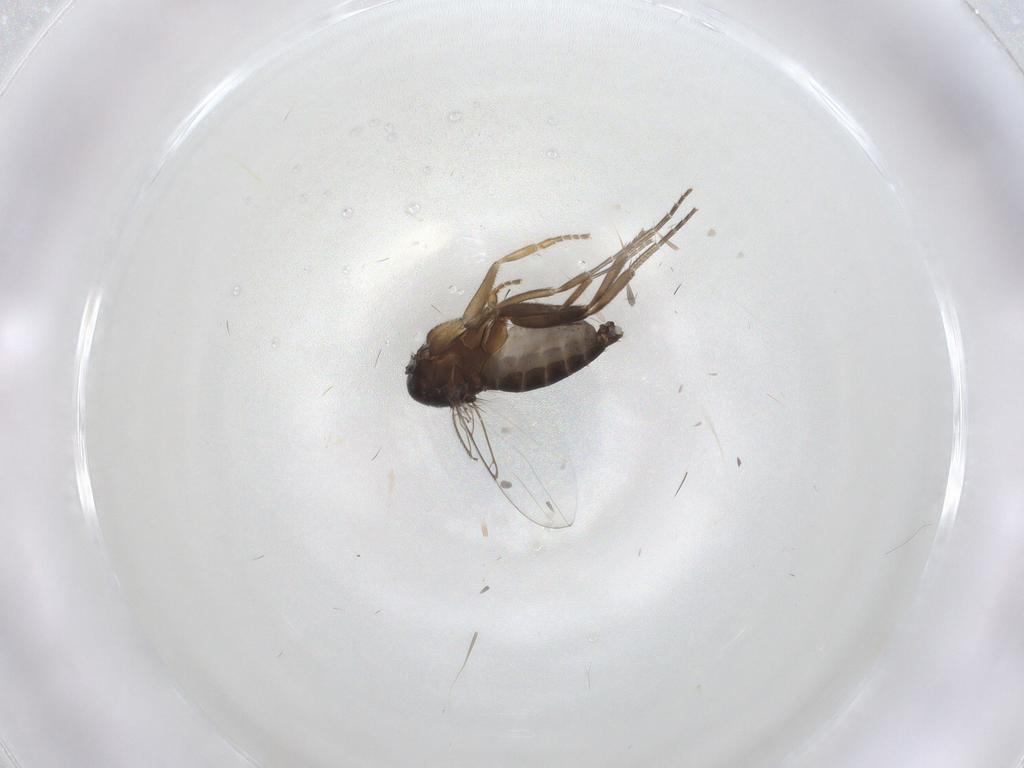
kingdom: Animalia
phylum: Arthropoda
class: Insecta
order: Diptera
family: Phoridae
